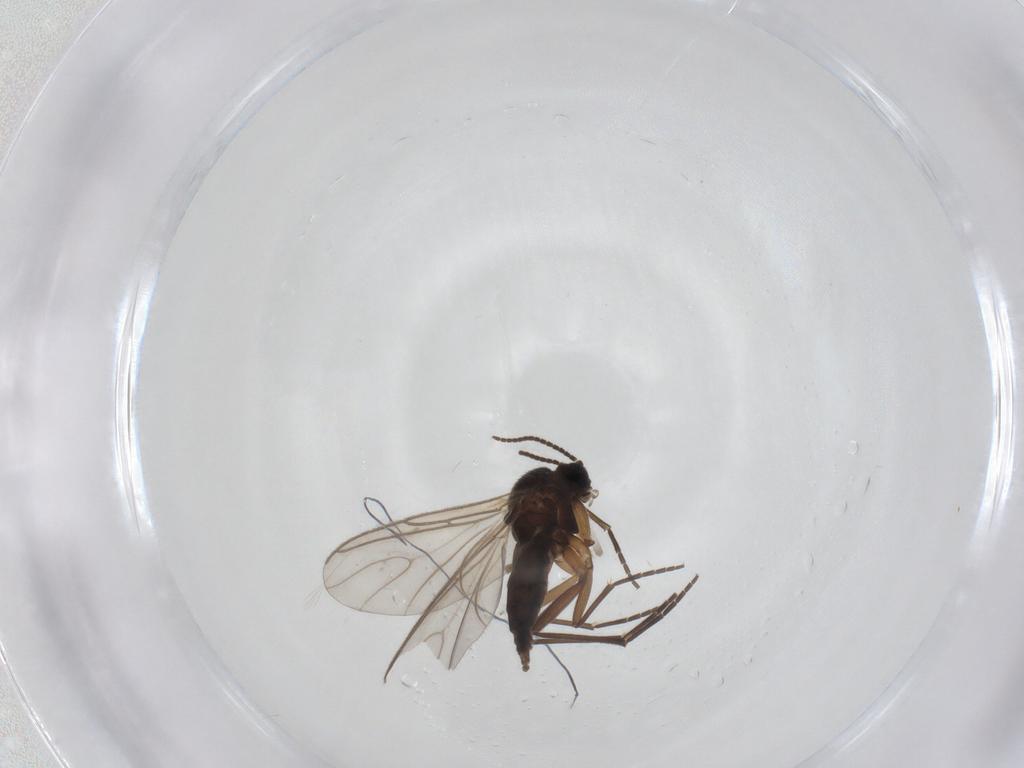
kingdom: Animalia
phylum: Arthropoda
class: Insecta
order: Diptera
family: Sciaridae
